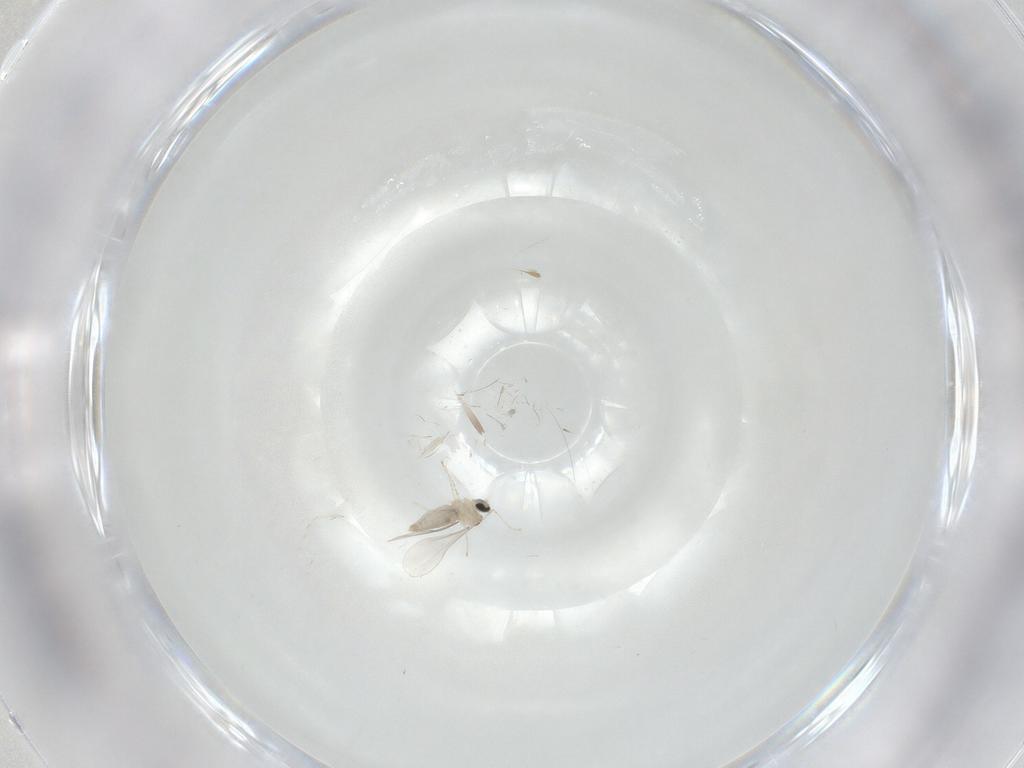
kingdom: Animalia
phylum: Arthropoda
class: Insecta
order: Diptera
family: Cecidomyiidae
